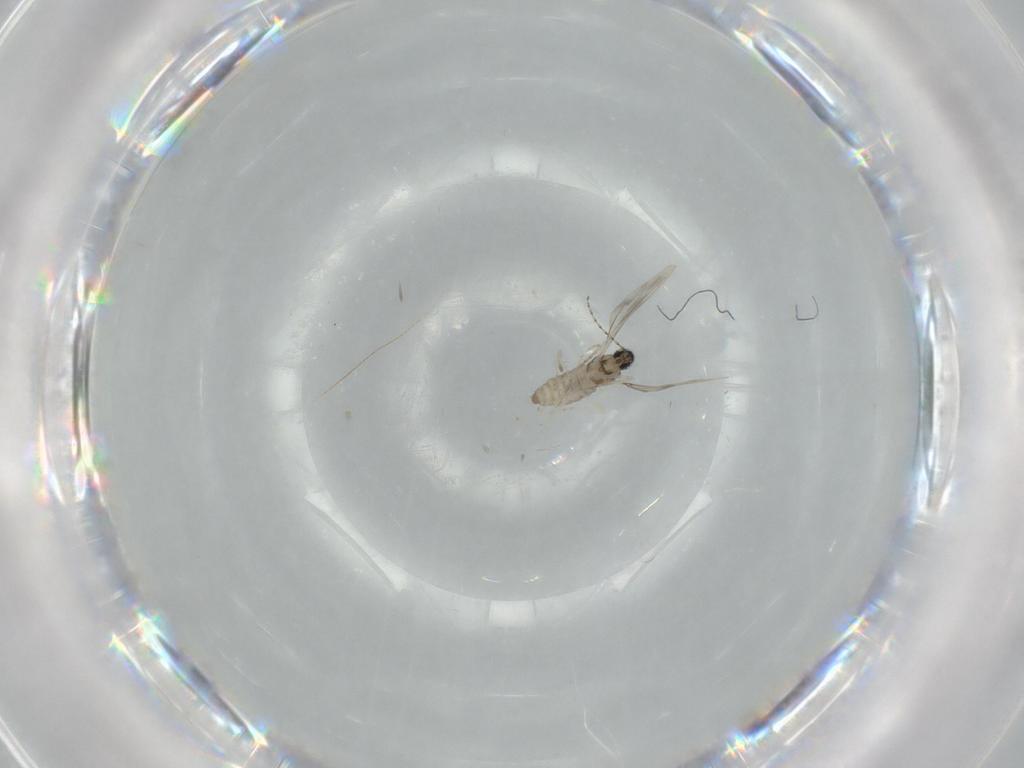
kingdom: Animalia
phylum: Arthropoda
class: Insecta
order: Diptera
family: Cecidomyiidae
